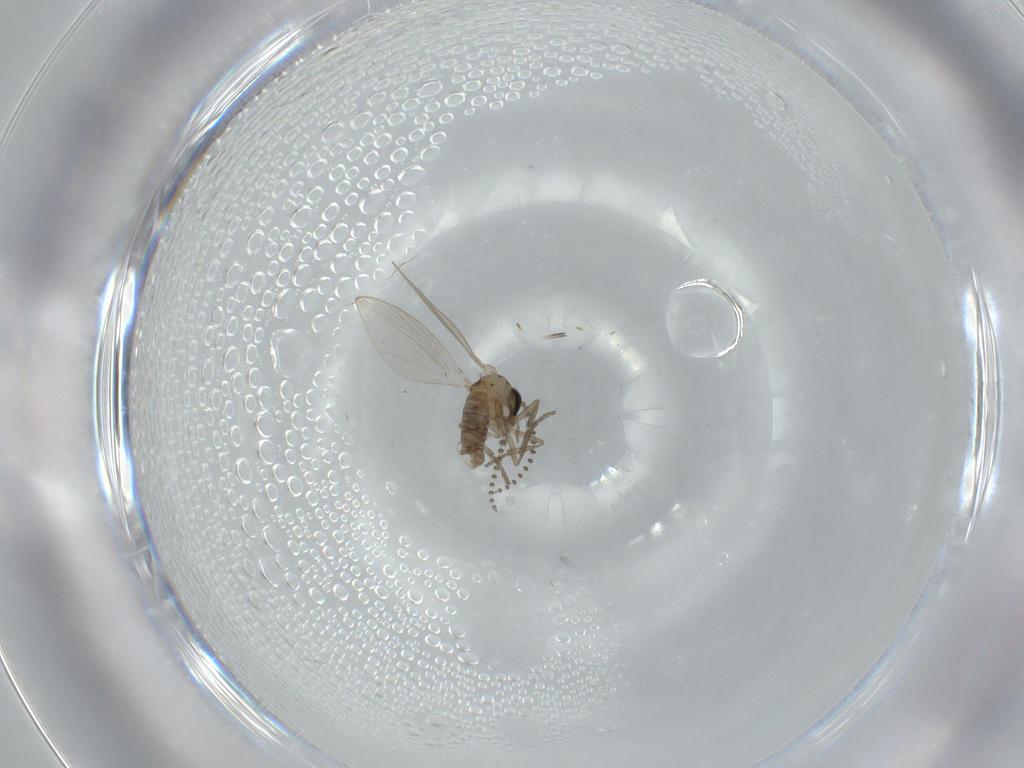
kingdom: Animalia
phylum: Arthropoda
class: Insecta
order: Diptera
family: Psychodidae
